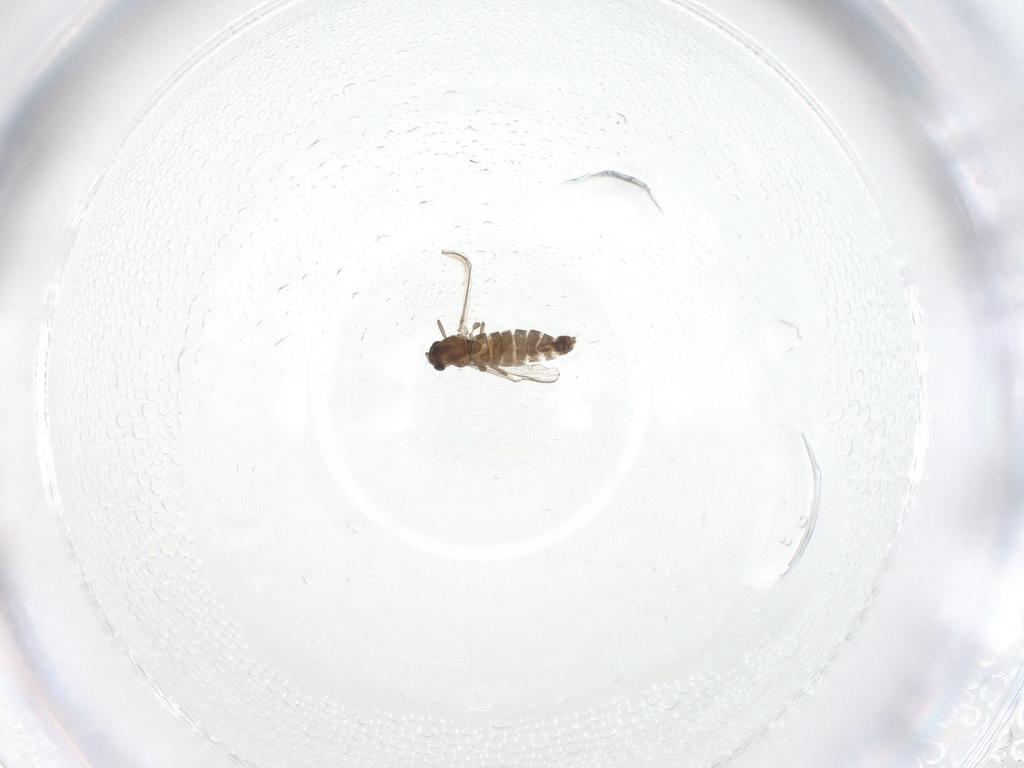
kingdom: Animalia
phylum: Arthropoda
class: Insecta
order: Diptera
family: Chironomidae
